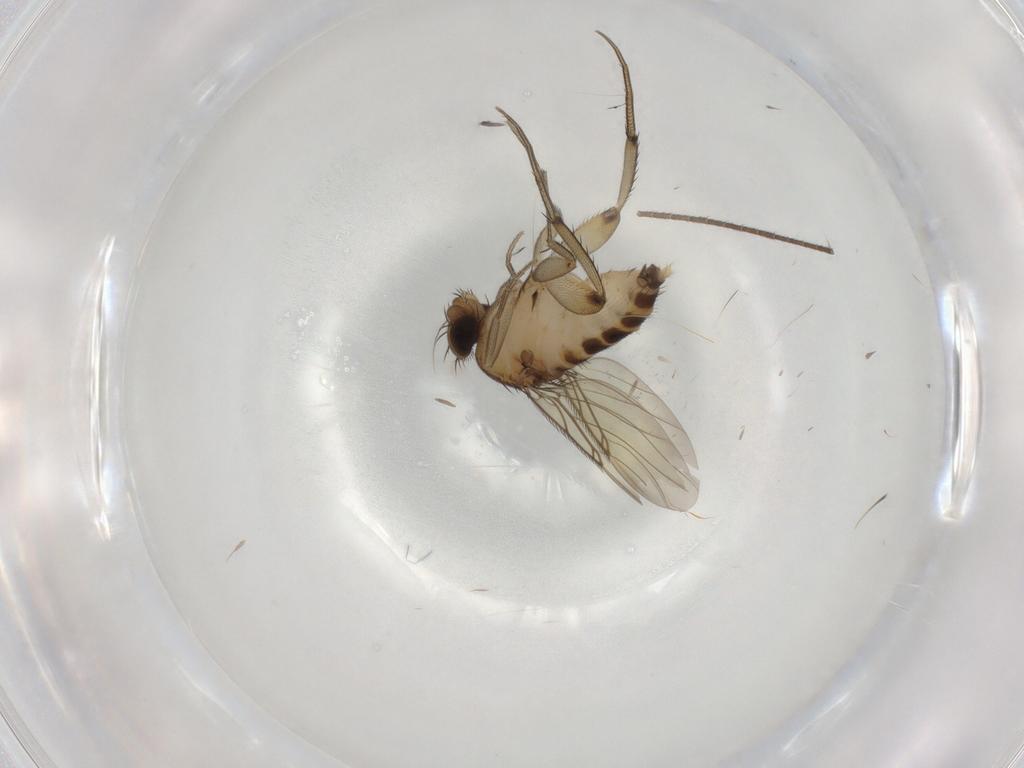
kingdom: Animalia
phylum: Arthropoda
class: Insecta
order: Diptera
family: Phoridae
